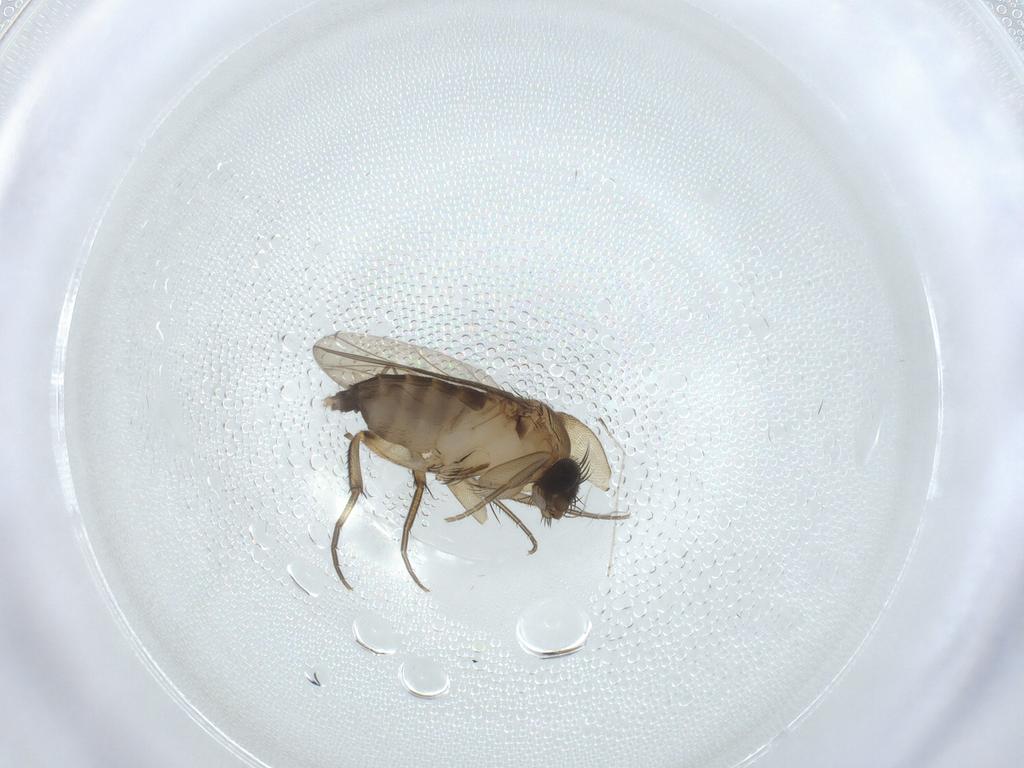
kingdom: Animalia
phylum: Arthropoda
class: Insecta
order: Diptera
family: Phoridae
